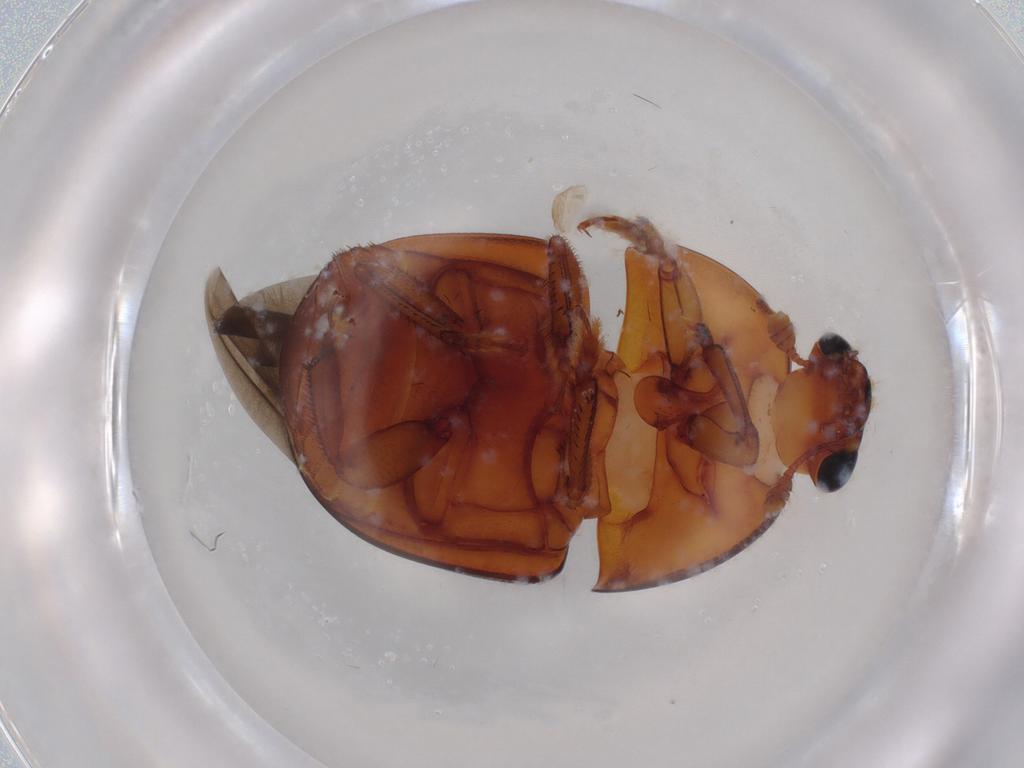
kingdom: Animalia
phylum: Arthropoda
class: Insecta
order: Coleoptera
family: Nitidulidae
